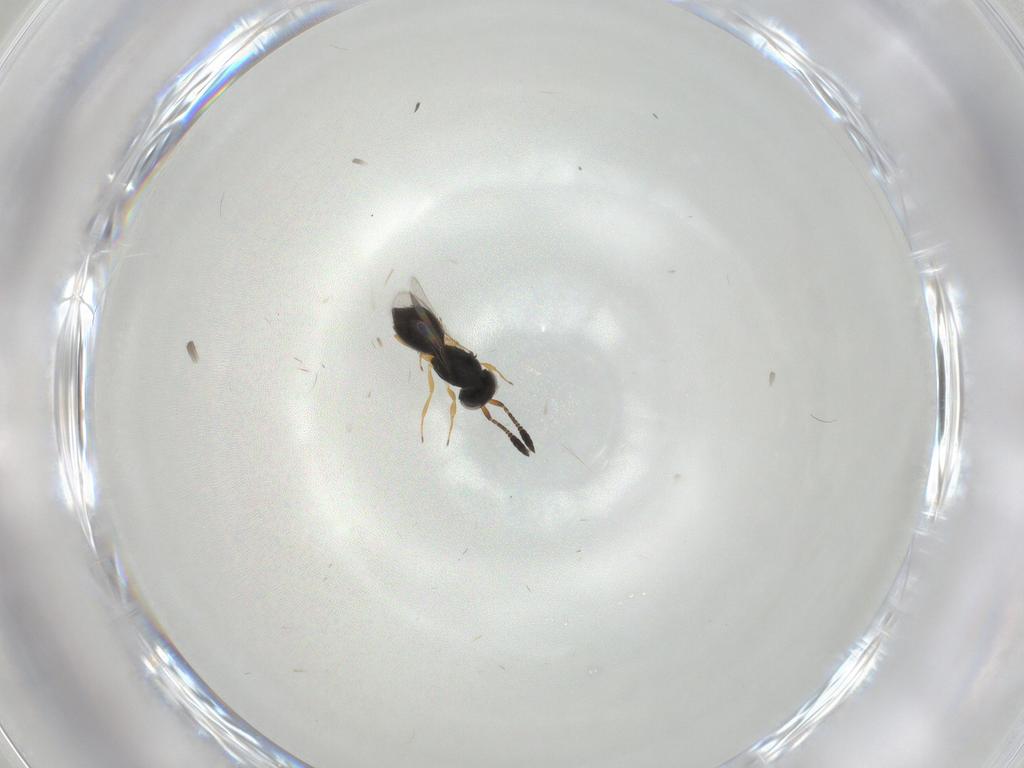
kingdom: Animalia
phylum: Arthropoda
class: Insecta
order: Hymenoptera
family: Scelionidae
